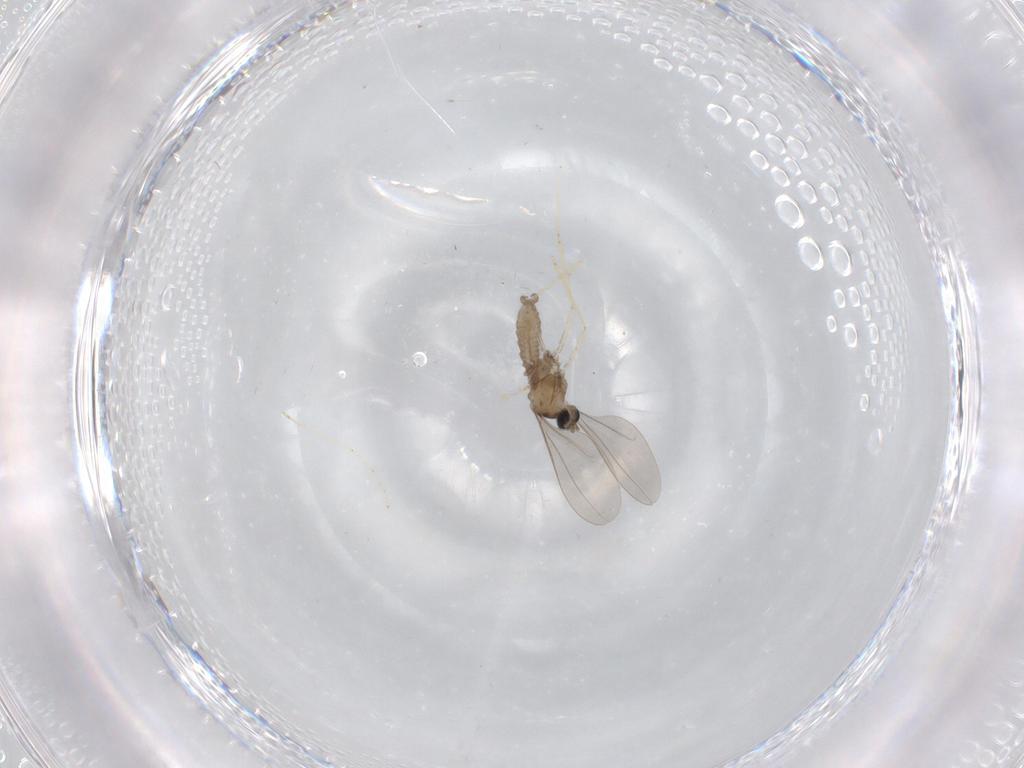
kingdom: Animalia
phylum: Arthropoda
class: Insecta
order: Diptera
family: Limoniidae
